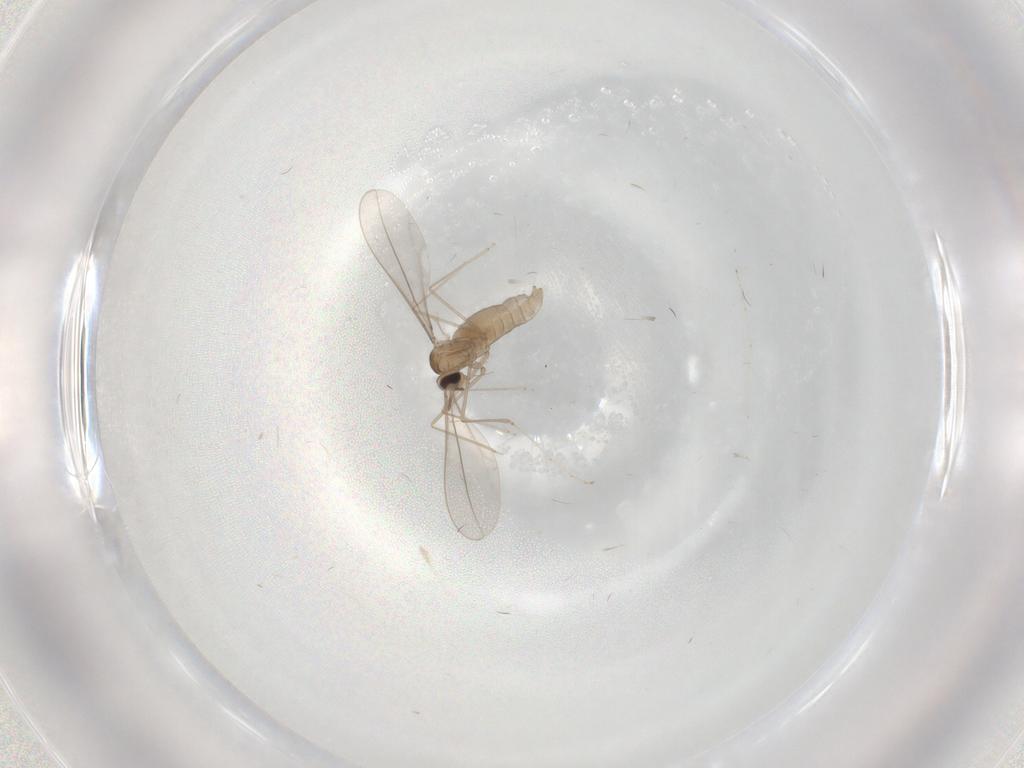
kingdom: Animalia
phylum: Arthropoda
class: Insecta
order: Diptera
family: Cecidomyiidae
